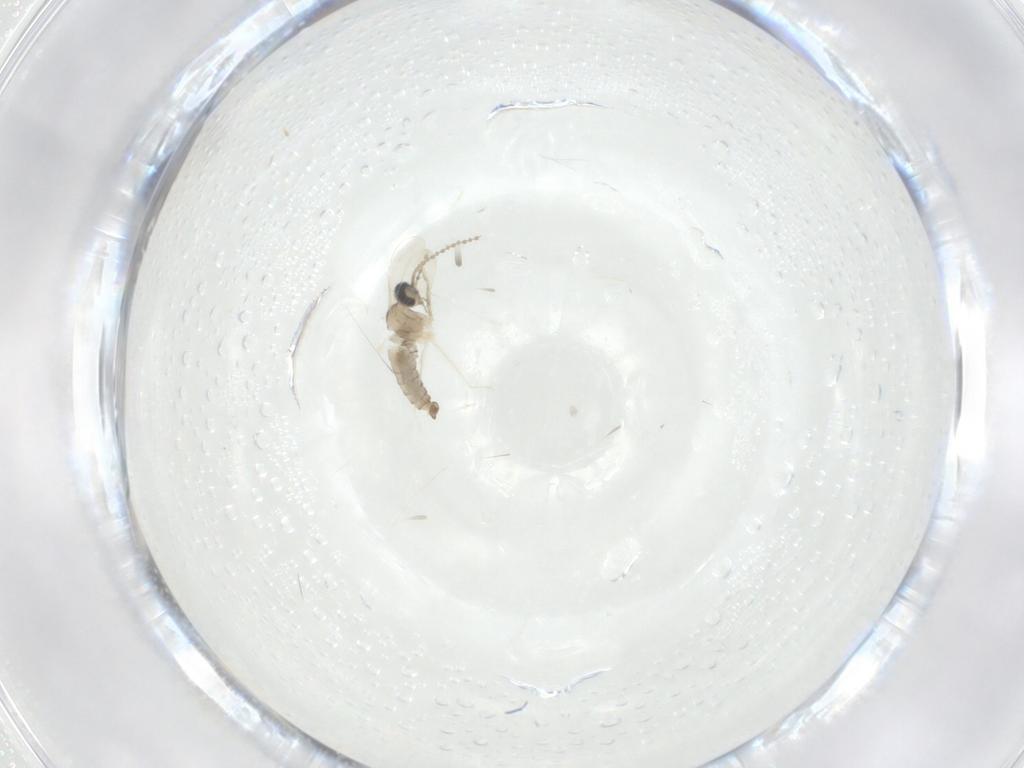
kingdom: Animalia
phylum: Arthropoda
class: Insecta
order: Diptera
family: Cecidomyiidae
